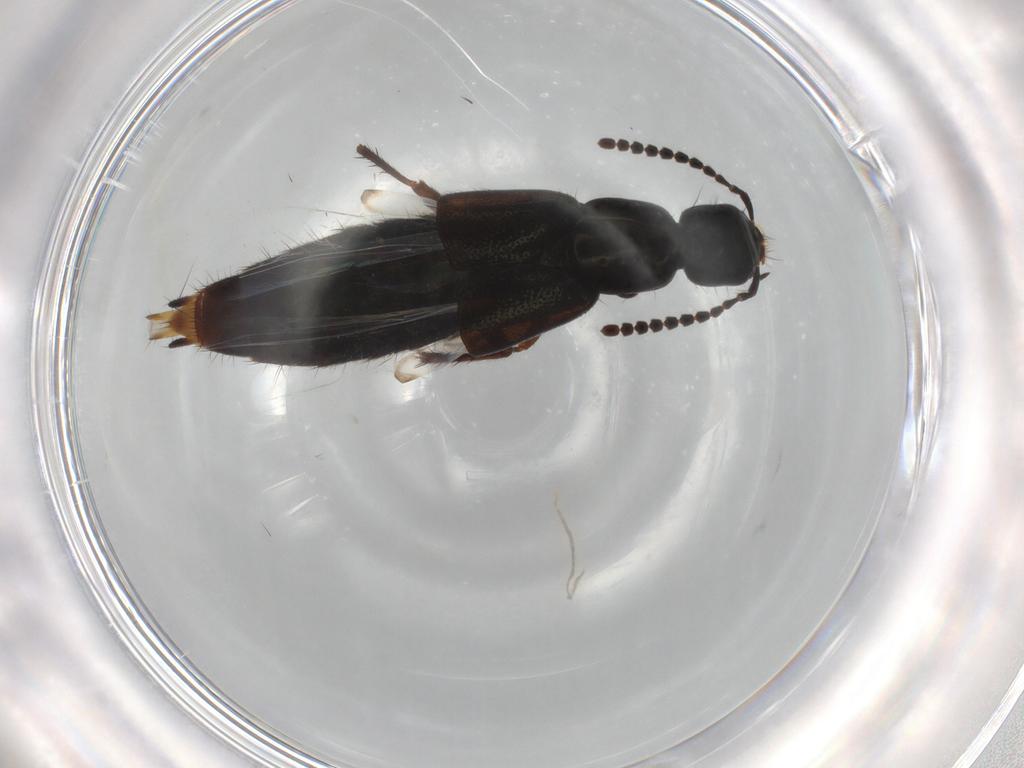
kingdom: Animalia
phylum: Arthropoda
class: Insecta
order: Coleoptera
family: Staphylinidae
